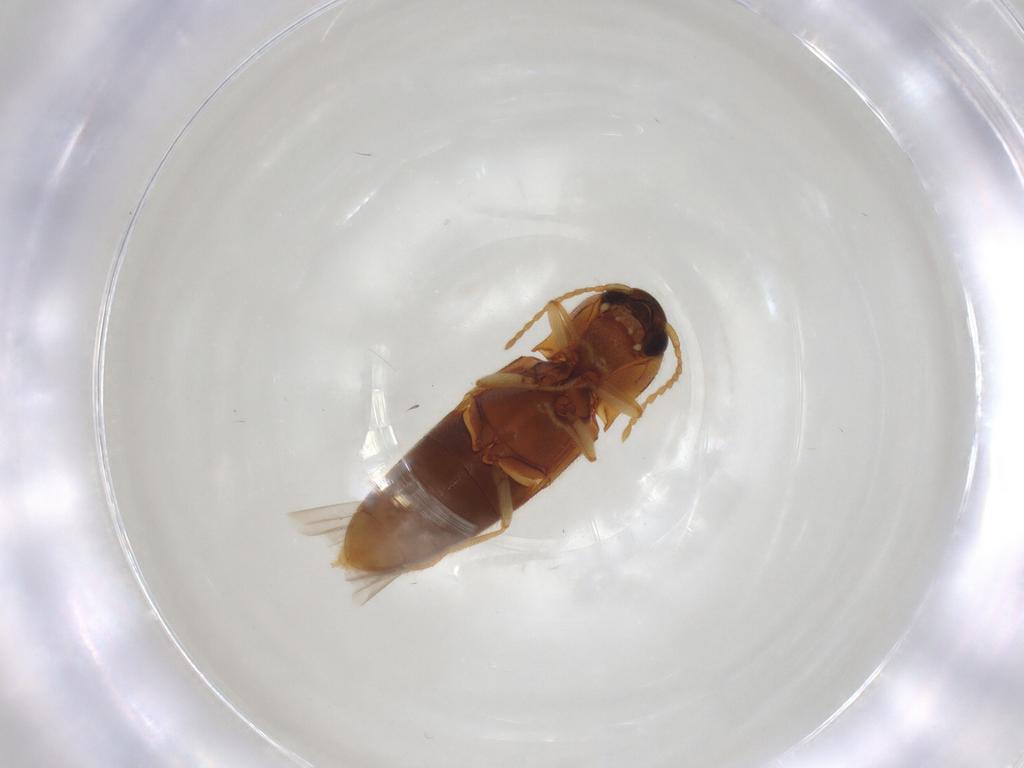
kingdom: Animalia
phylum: Arthropoda
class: Insecta
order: Coleoptera
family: Elateridae
